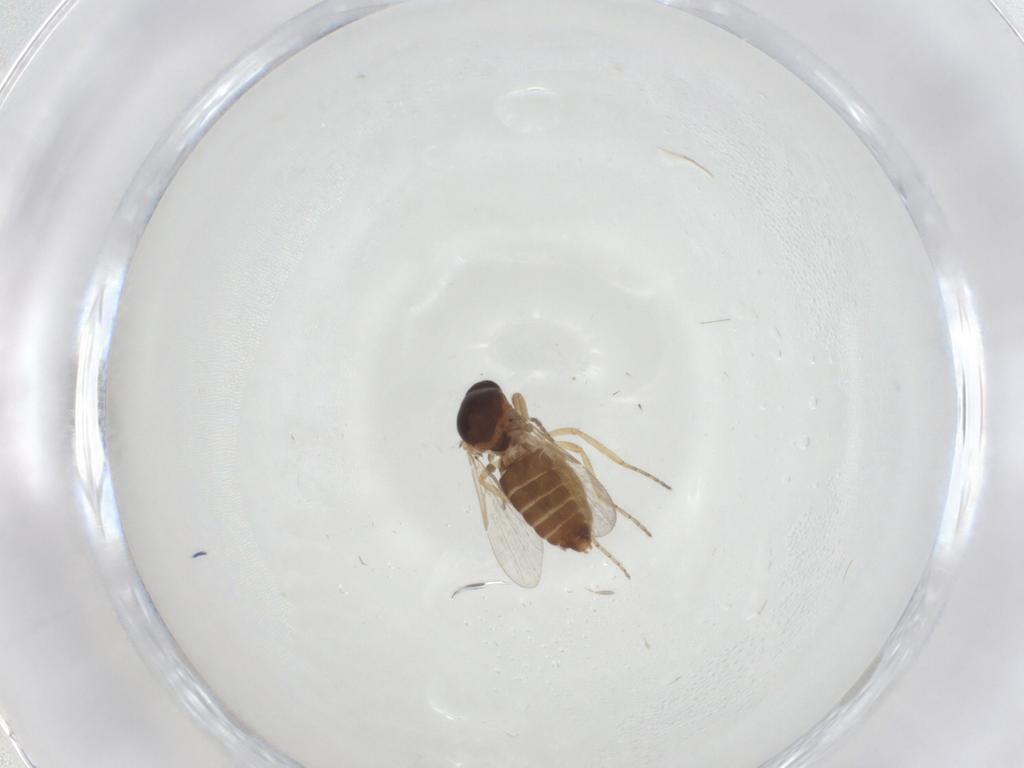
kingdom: Animalia
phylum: Arthropoda
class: Insecta
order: Diptera
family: Ceratopogonidae
